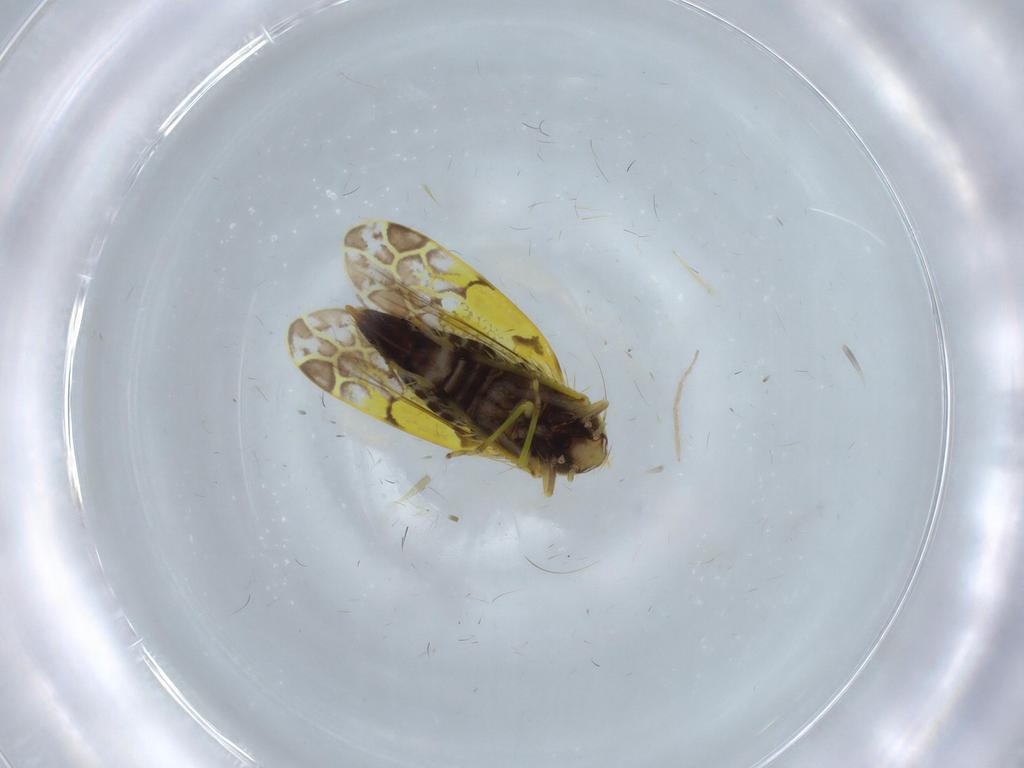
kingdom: Animalia
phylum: Arthropoda
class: Insecta
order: Hemiptera
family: Cicadellidae
